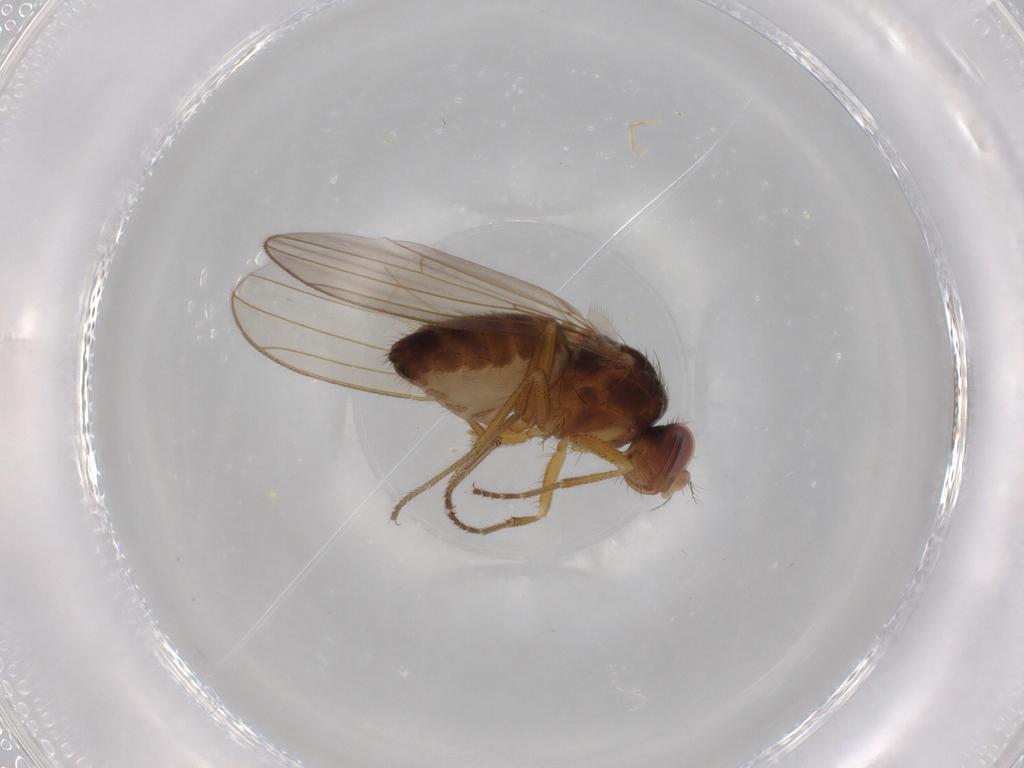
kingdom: Animalia
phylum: Arthropoda
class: Insecta
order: Diptera
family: Drosophilidae
